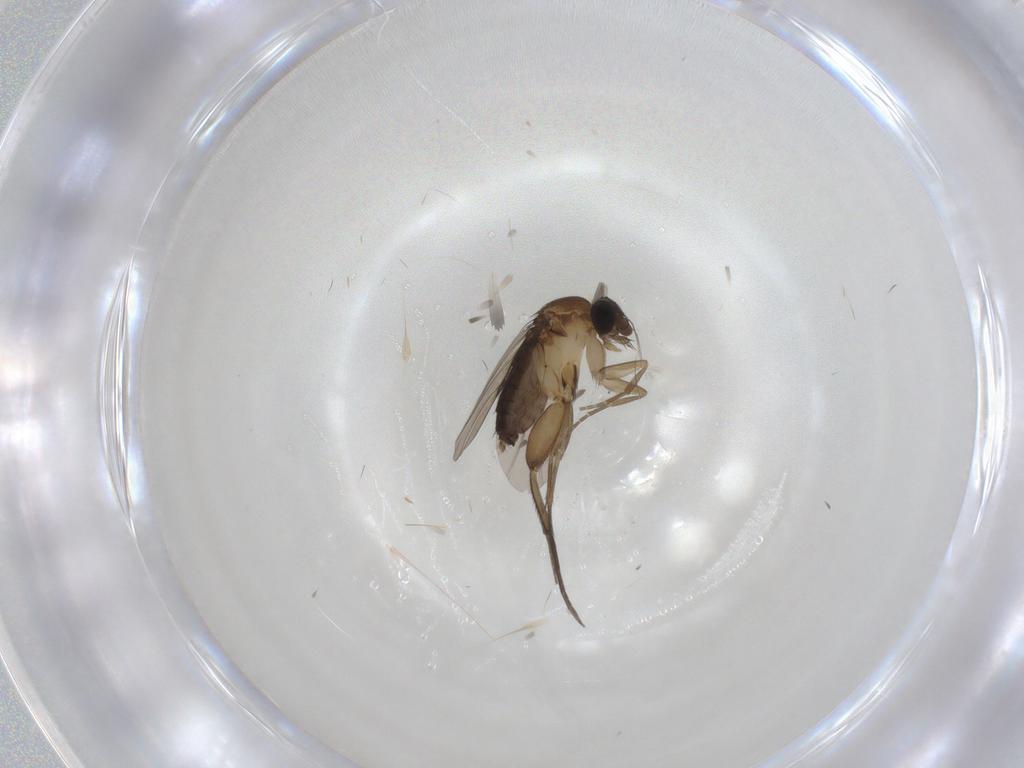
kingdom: Animalia
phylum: Arthropoda
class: Insecta
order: Diptera
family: Phoridae
